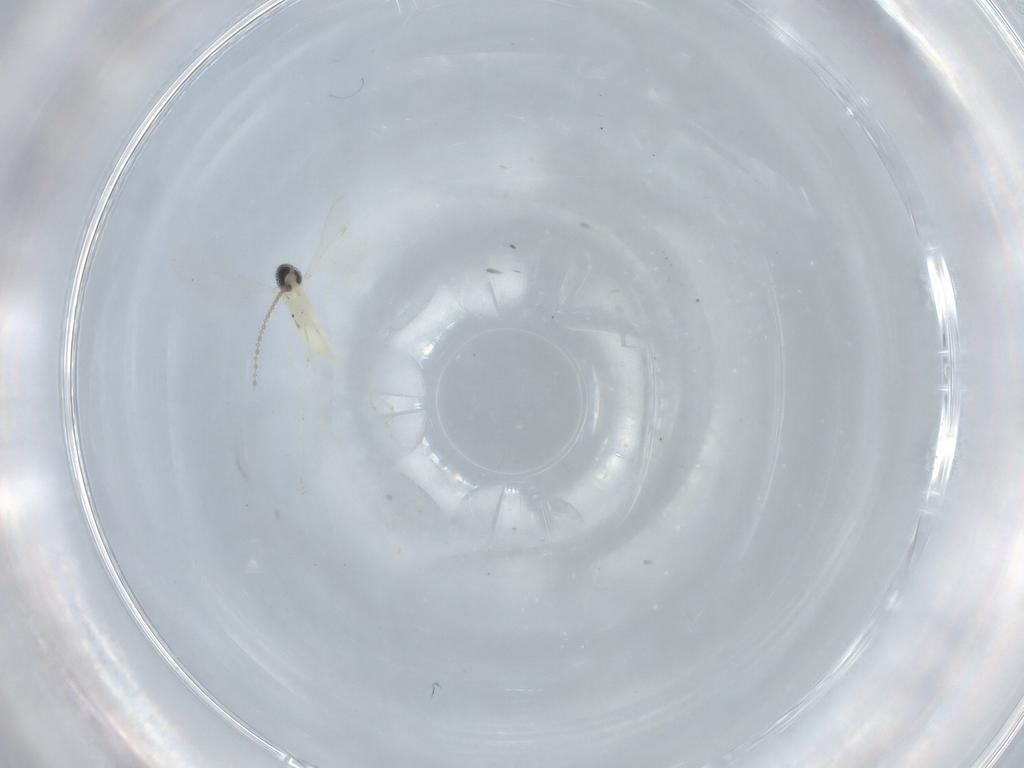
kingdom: Animalia
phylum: Arthropoda
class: Insecta
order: Diptera
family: Cecidomyiidae
